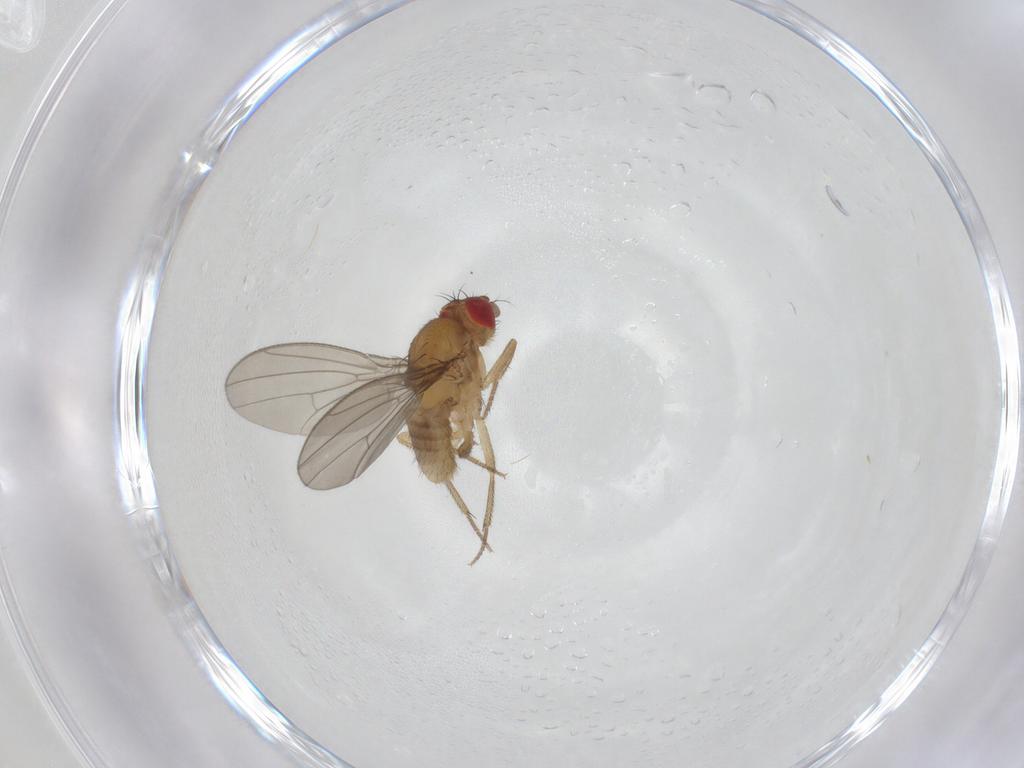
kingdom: Animalia
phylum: Arthropoda
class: Insecta
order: Diptera
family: Drosophilidae
